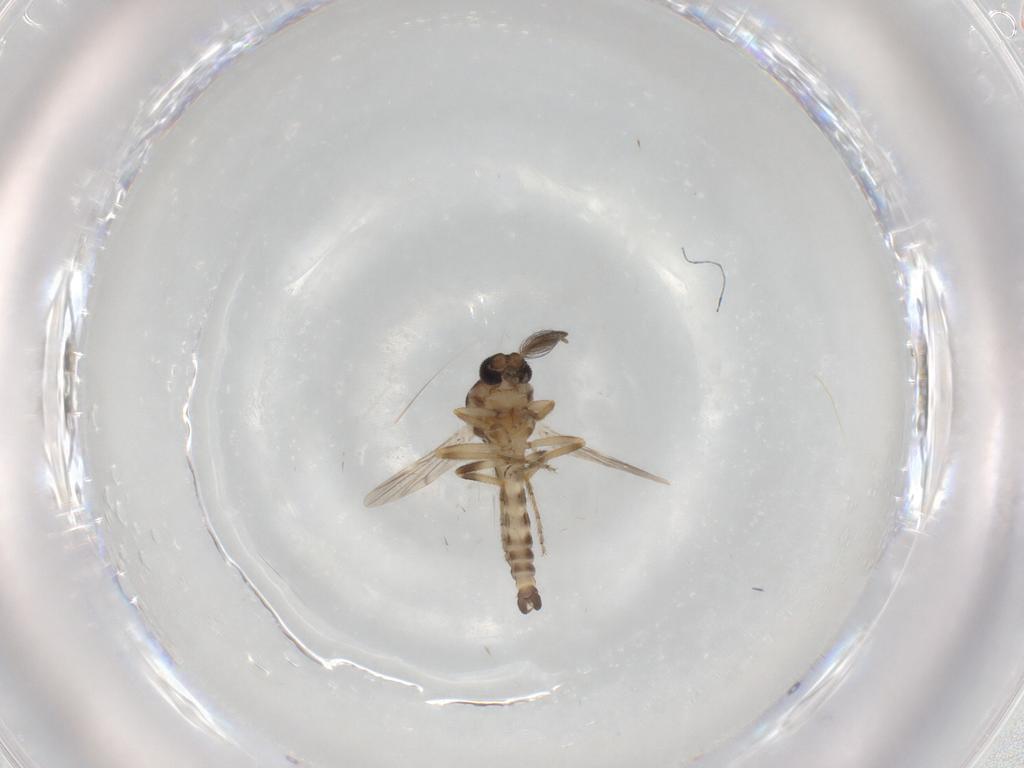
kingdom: Animalia
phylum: Arthropoda
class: Insecta
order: Diptera
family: Ceratopogonidae
